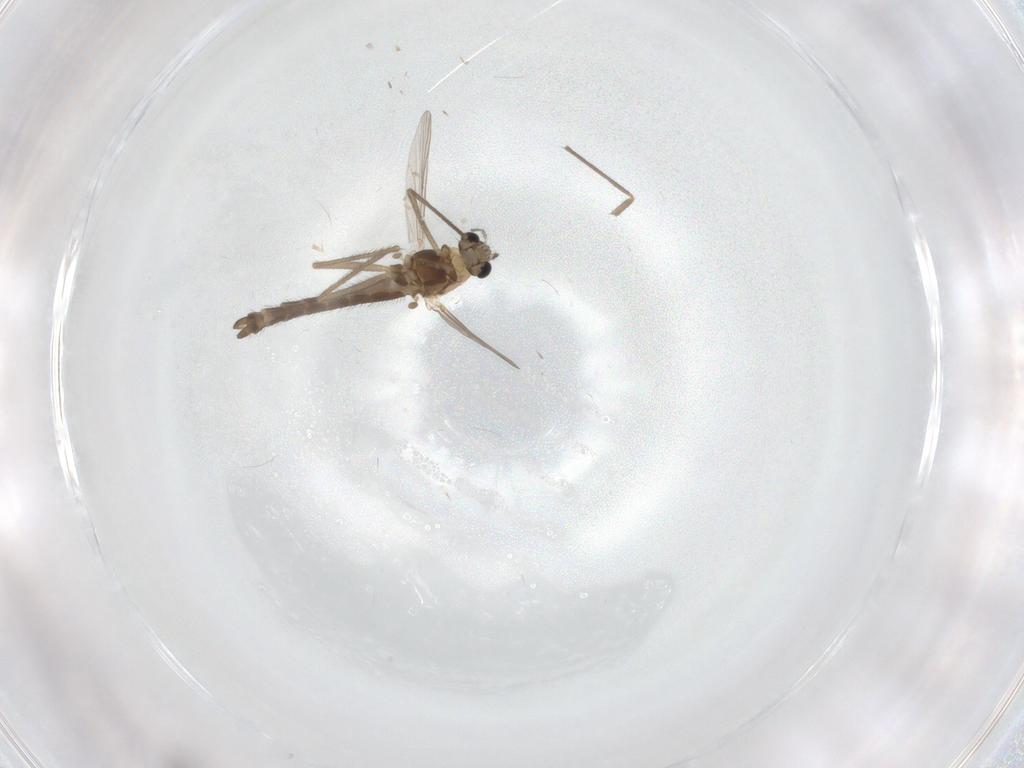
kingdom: Animalia
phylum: Arthropoda
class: Insecta
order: Diptera
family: Chironomidae
